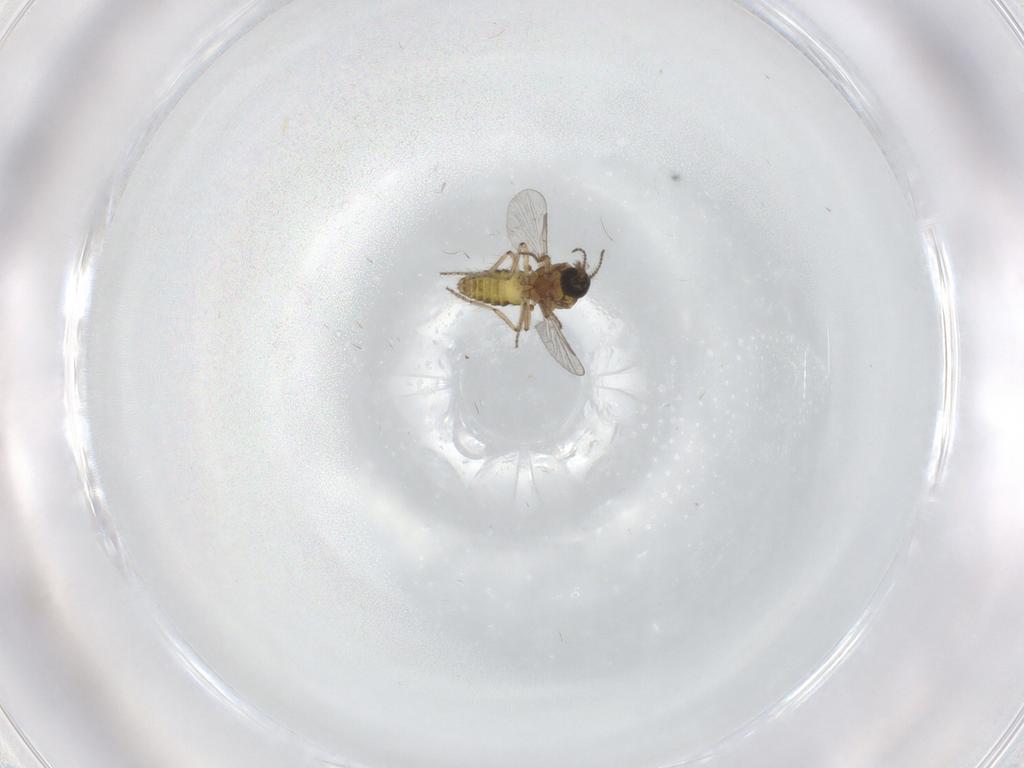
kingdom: Animalia
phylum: Arthropoda
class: Insecta
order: Diptera
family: Ceratopogonidae
